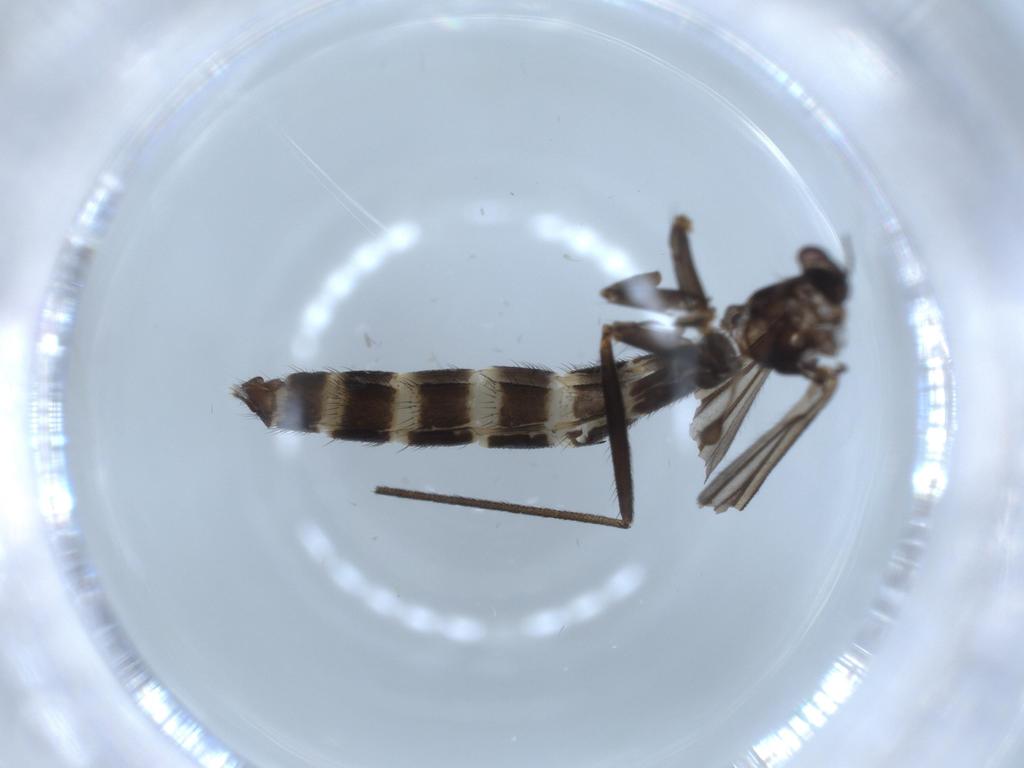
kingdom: Animalia
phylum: Arthropoda
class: Insecta
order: Diptera
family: Ditomyiidae
